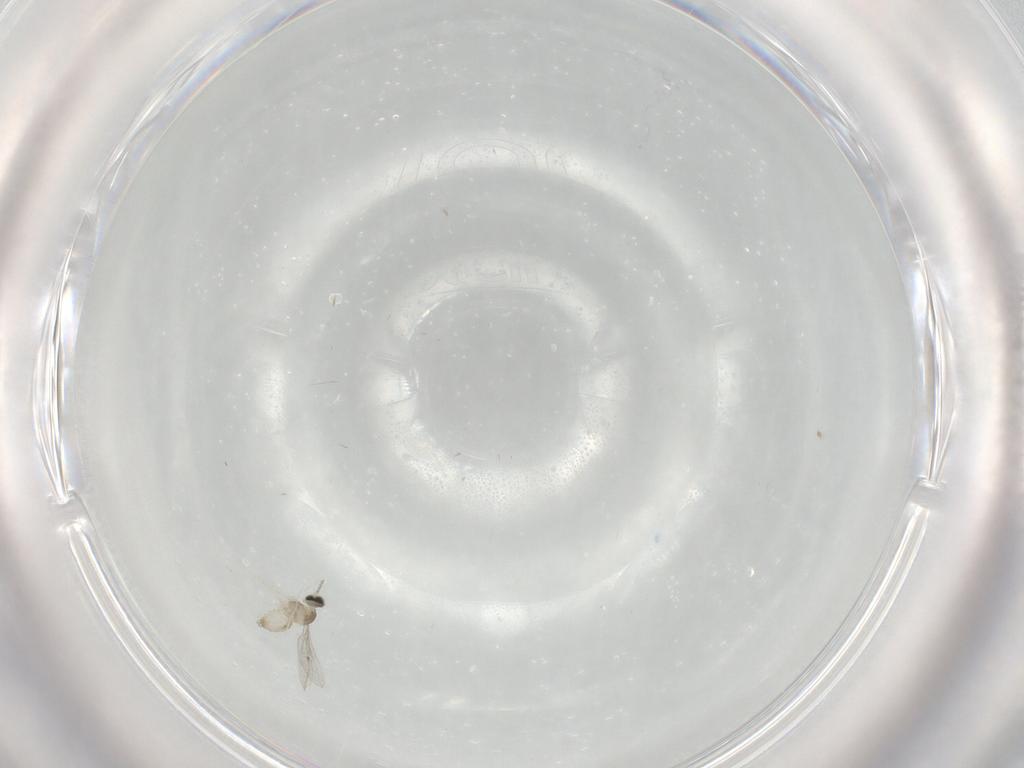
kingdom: Animalia
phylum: Arthropoda
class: Insecta
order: Diptera
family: Cecidomyiidae
